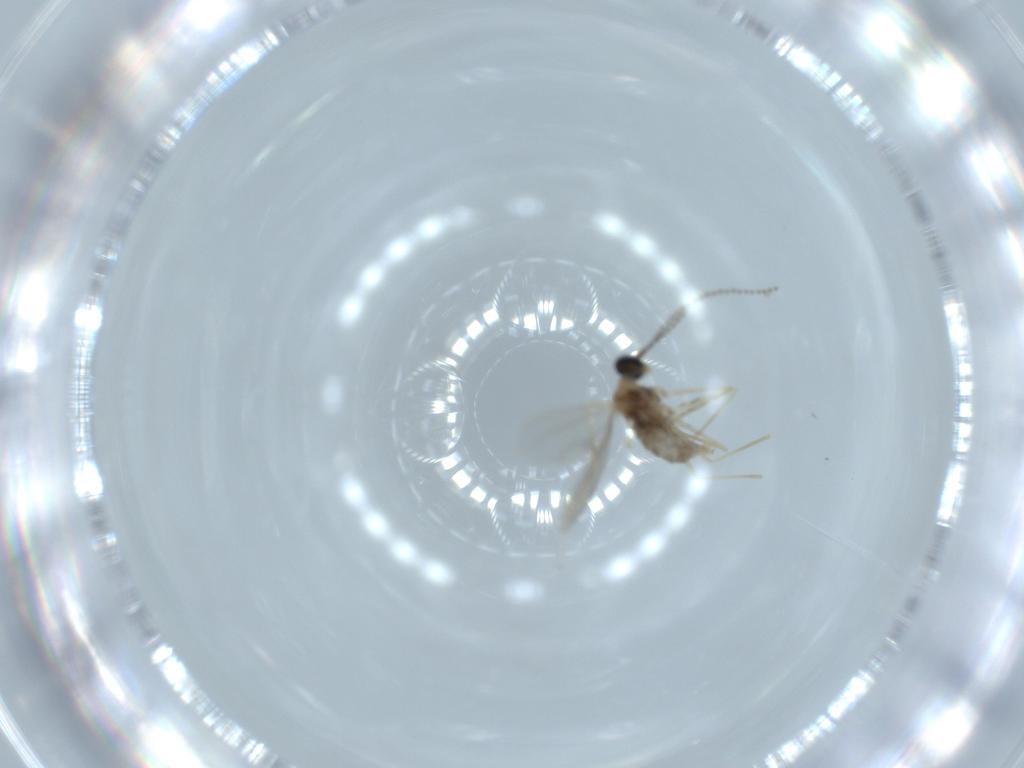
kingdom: Animalia
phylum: Arthropoda
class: Insecta
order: Diptera
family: Cecidomyiidae
